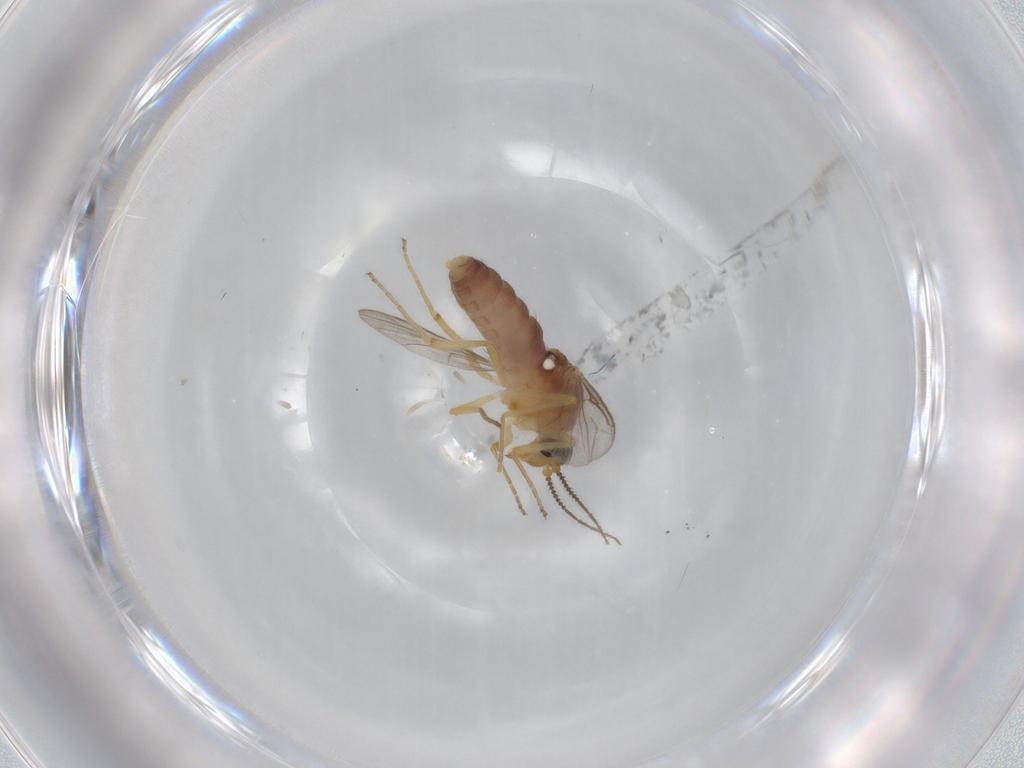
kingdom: Animalia
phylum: Arthropoda
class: Insecta
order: Diptera
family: Ceratopogonidae
